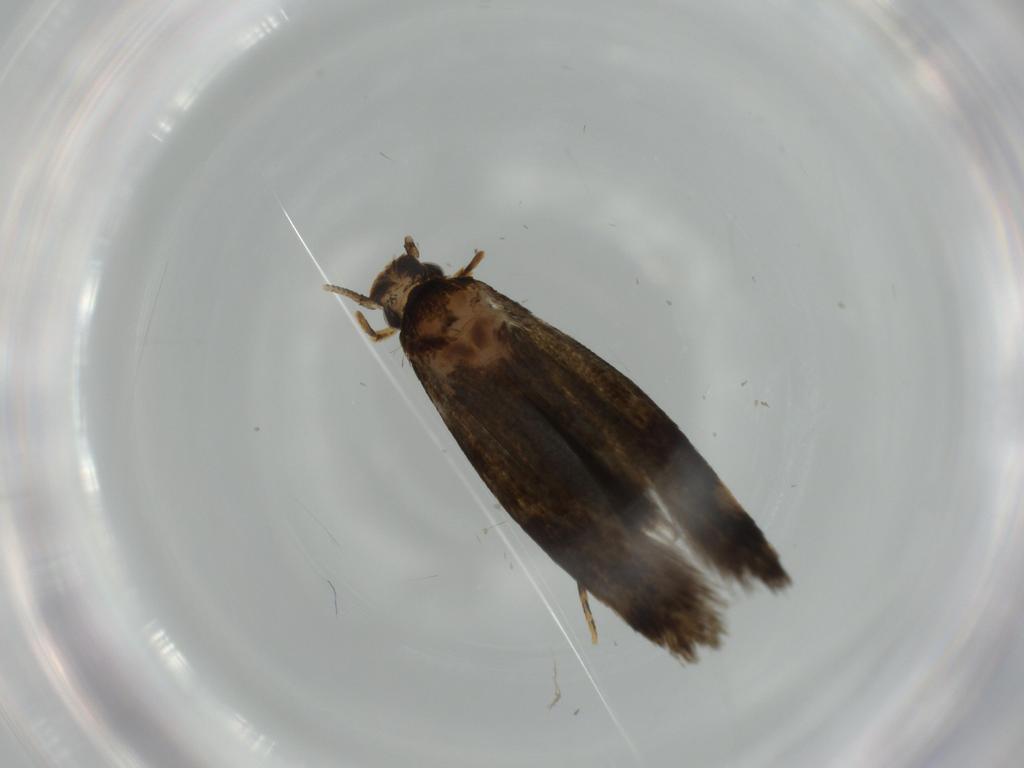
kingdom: Animalia
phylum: Arthropoda
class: Insecta
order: Lepidoptera
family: Tineidae
